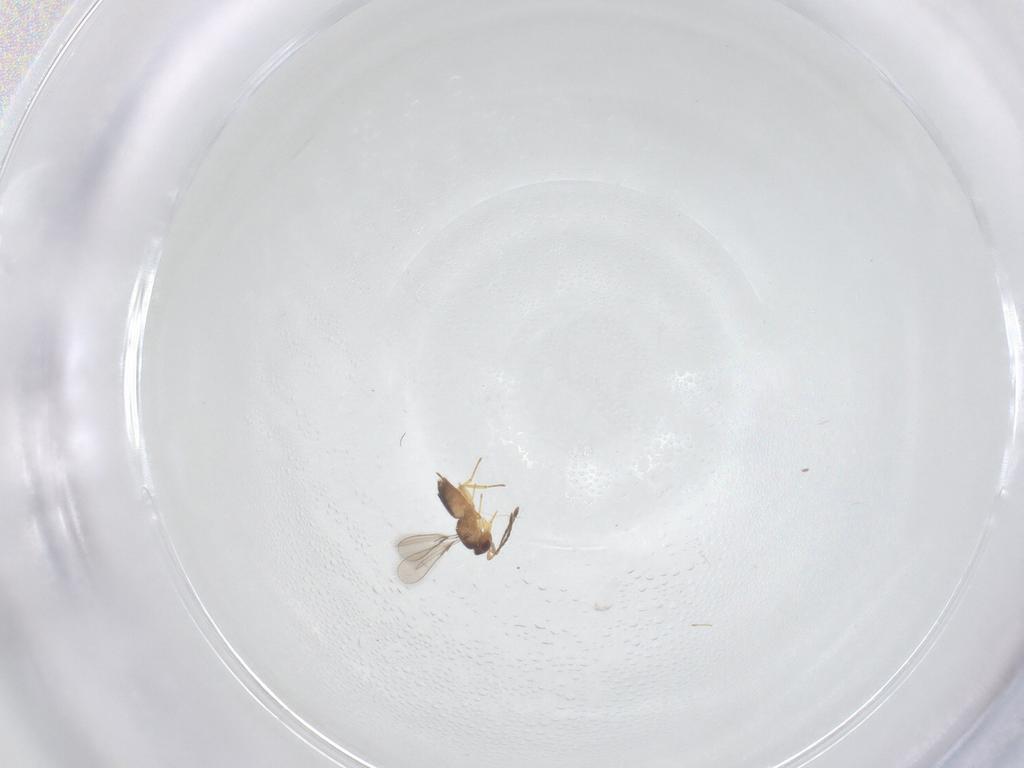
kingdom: Animalia
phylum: Arthropoda
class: Insecta
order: Hymenoptera
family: Mymaridae
